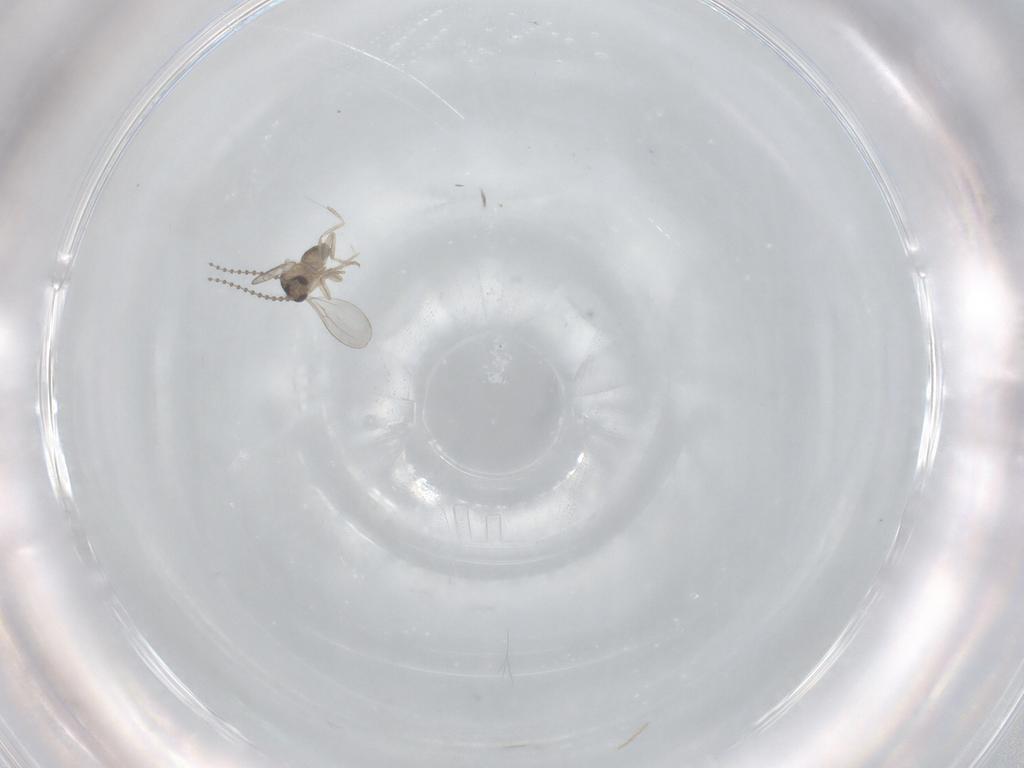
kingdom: Animalia
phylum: Arthropoda
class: Insecta
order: Diptera
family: Cecidomyiidae
